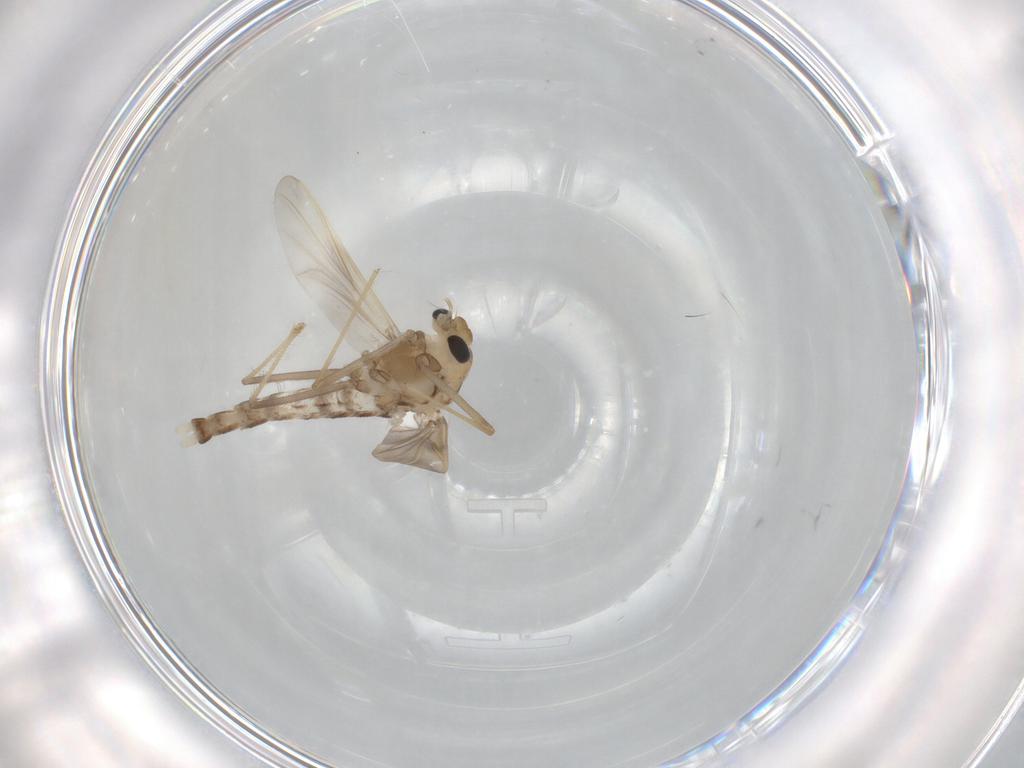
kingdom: Animalia
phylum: Arthropoda
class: Insecta
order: Diptera
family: Chironomidae
